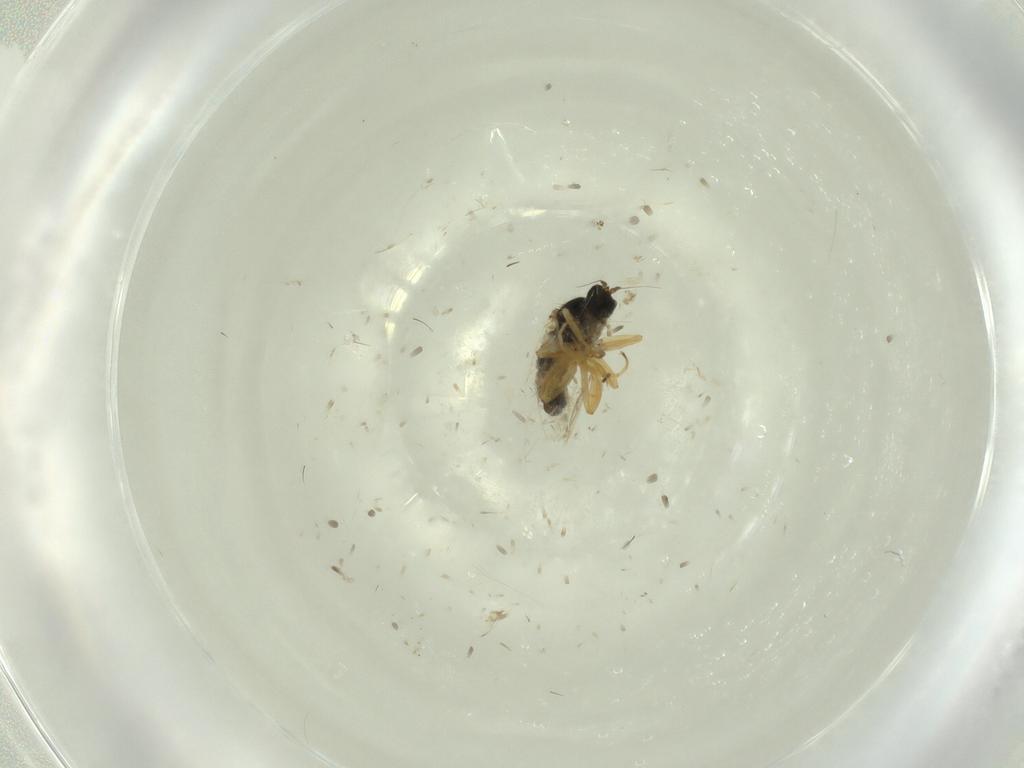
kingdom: Animalia
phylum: Arthropoda
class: Insecta
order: Diptera
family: Hybotidae
